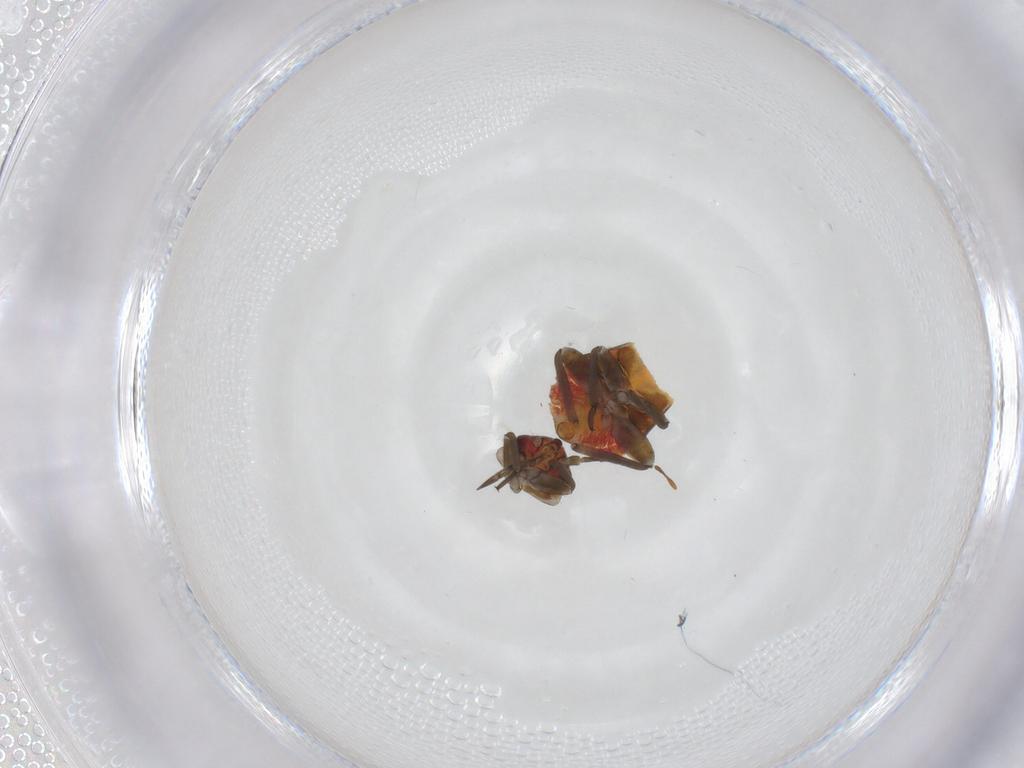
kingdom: Animalia
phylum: Arthropoda
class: Insecta
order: Hemiptera
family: Miridae
